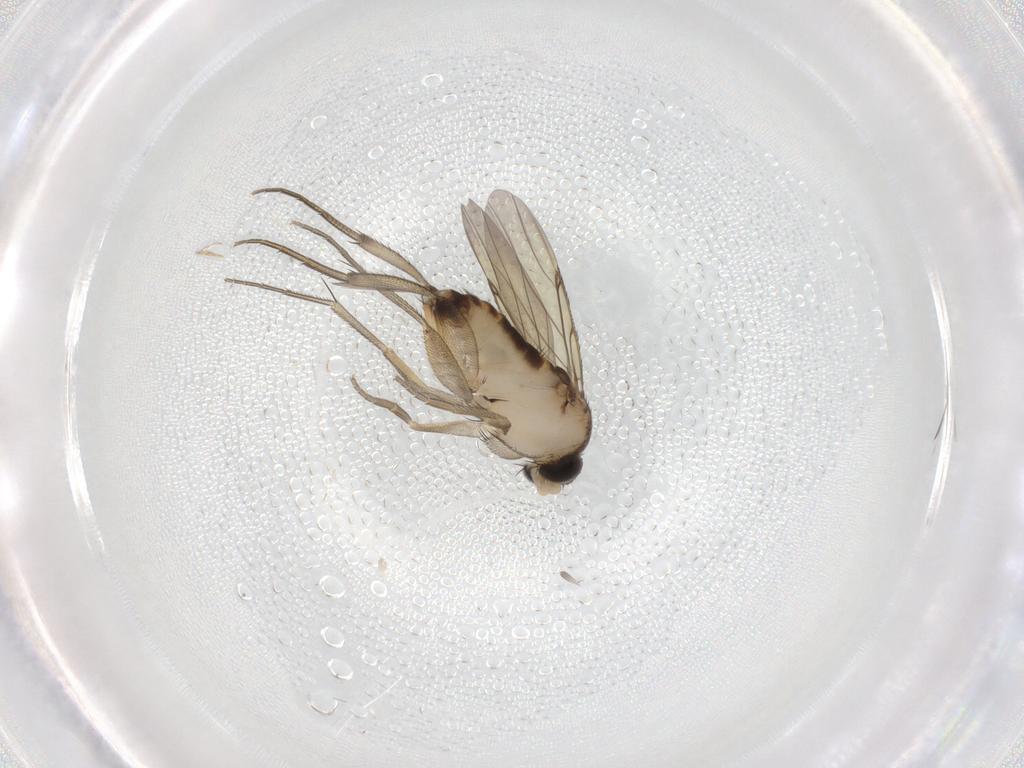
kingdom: Animalia
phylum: Arthropoda
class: Insecta
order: Diptera
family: Phoridae
